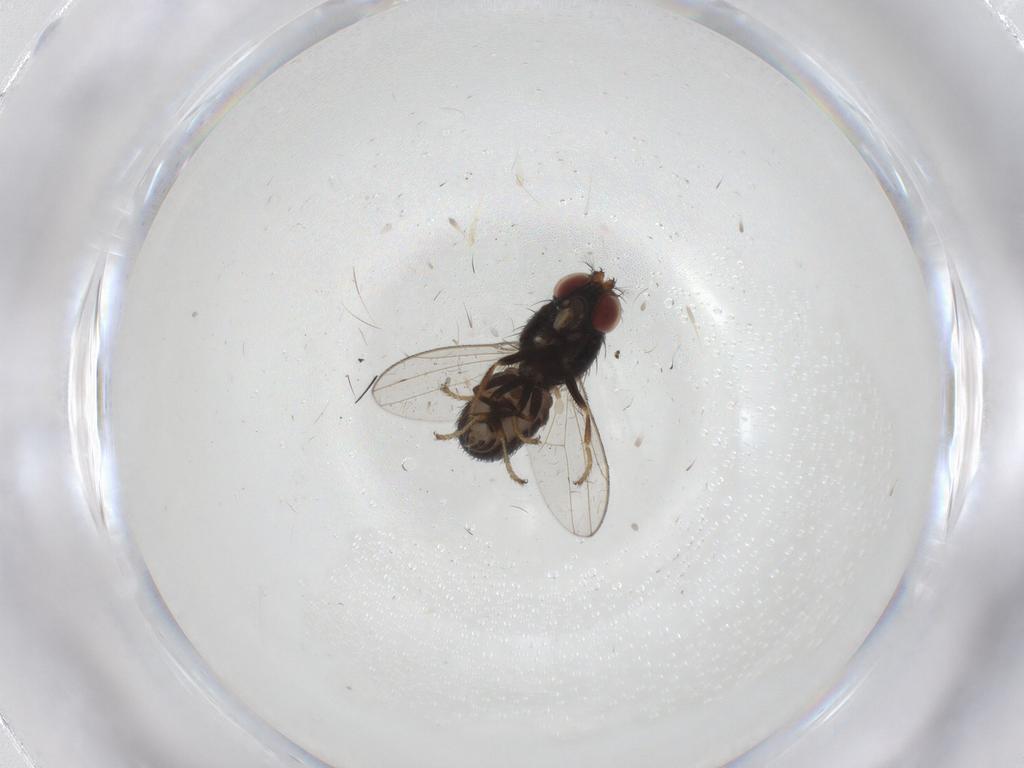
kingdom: Animalia
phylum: Arthropoda
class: Insecta
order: Diptera
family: Ephydridae
